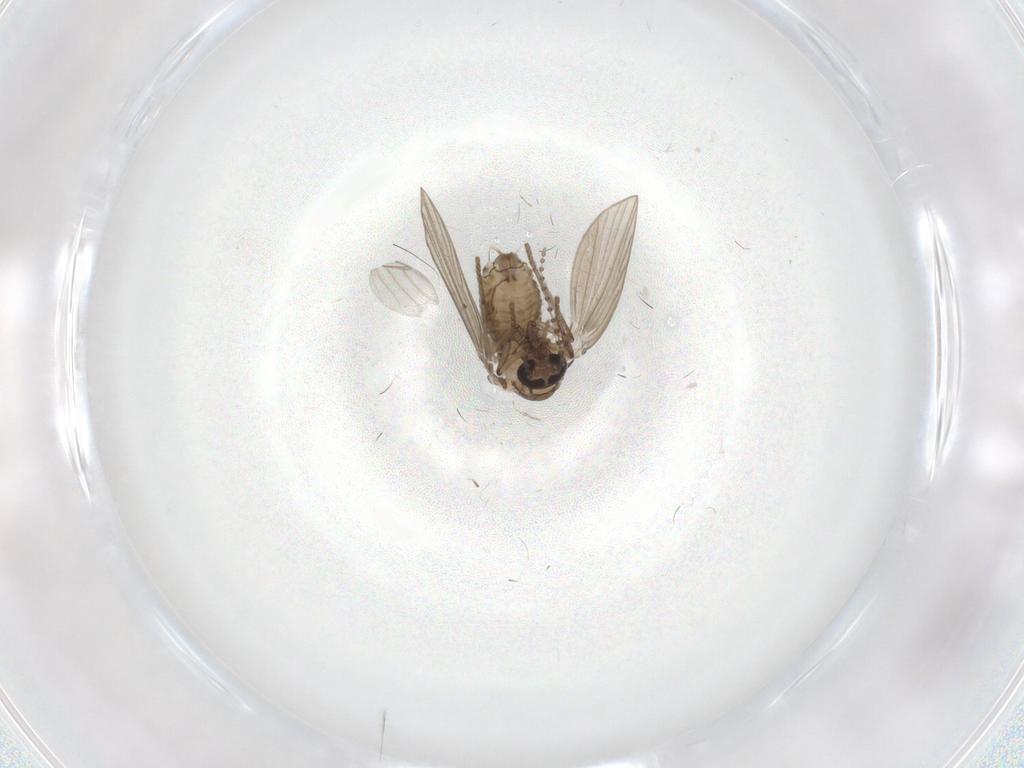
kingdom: Animalia
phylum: Arthropoda
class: Insecta
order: Diptera
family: Psychodidae
